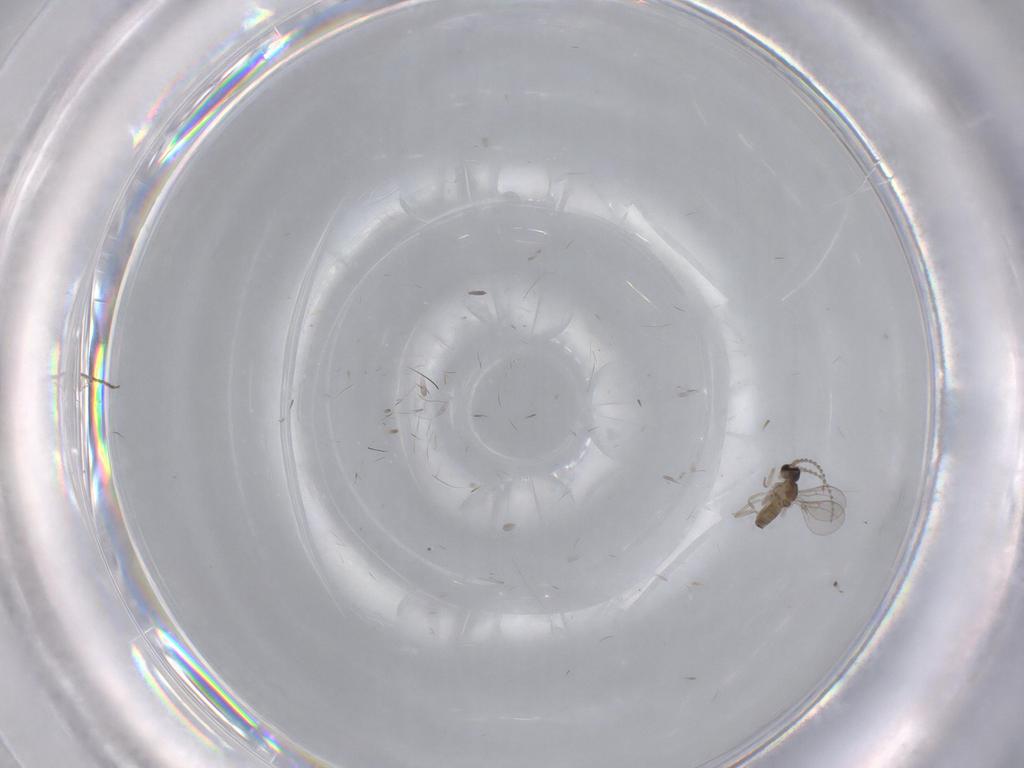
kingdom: Animalia
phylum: Arthropoda
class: Insecta
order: Diptera
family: Cecidomyiidae
